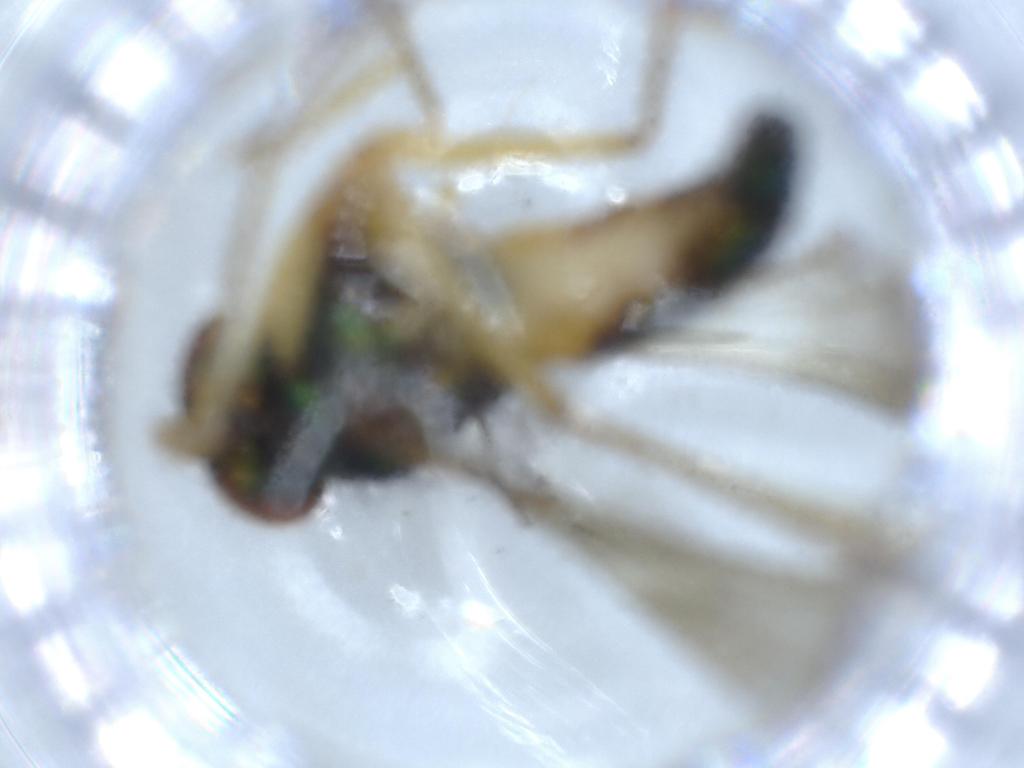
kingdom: Animalia
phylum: Arthropoda
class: Insecta
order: Diptera
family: Dolichopodidae
